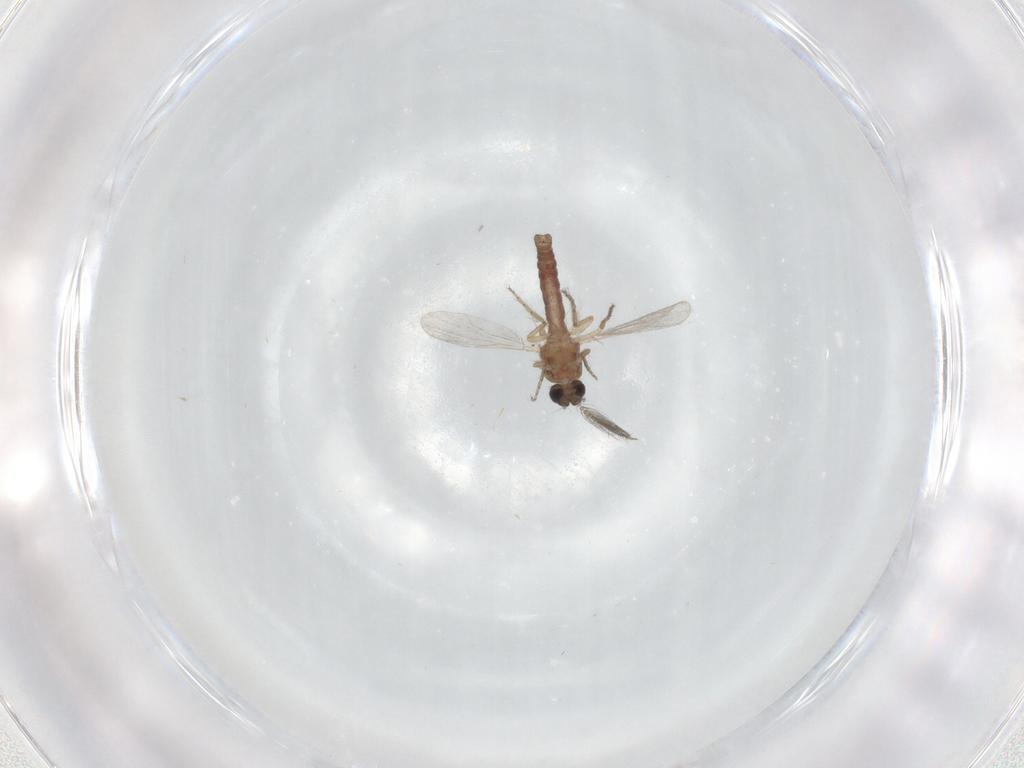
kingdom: Animalia
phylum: Arthropoda
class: Insecta
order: Diptera
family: Ceratopogonidae
